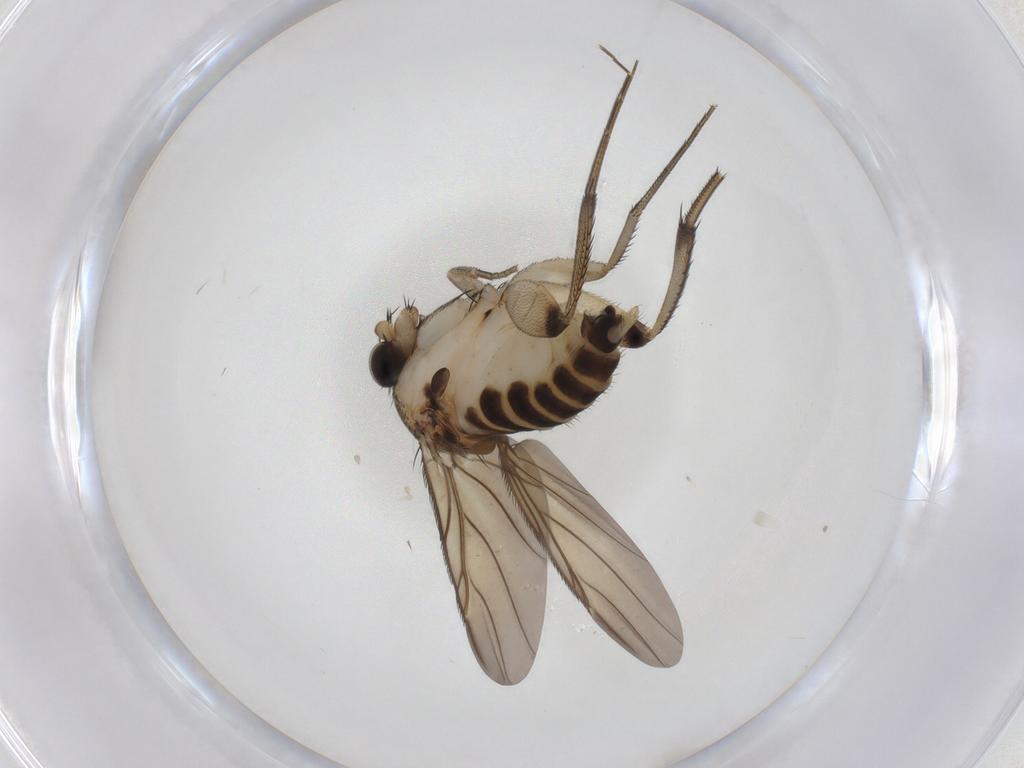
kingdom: Animalia
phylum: Arthropoda
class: Insecta
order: Diptera
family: Phoridae
